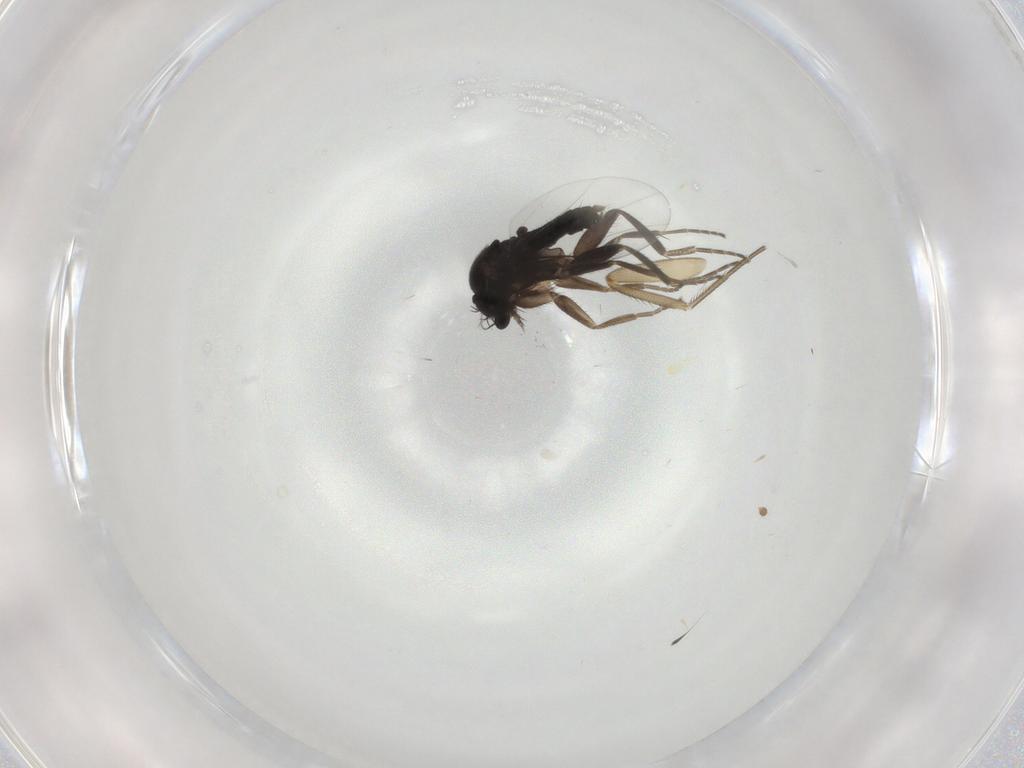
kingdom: Animalia
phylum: Arthropoda
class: Insecta
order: Diptera
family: Phoridae
